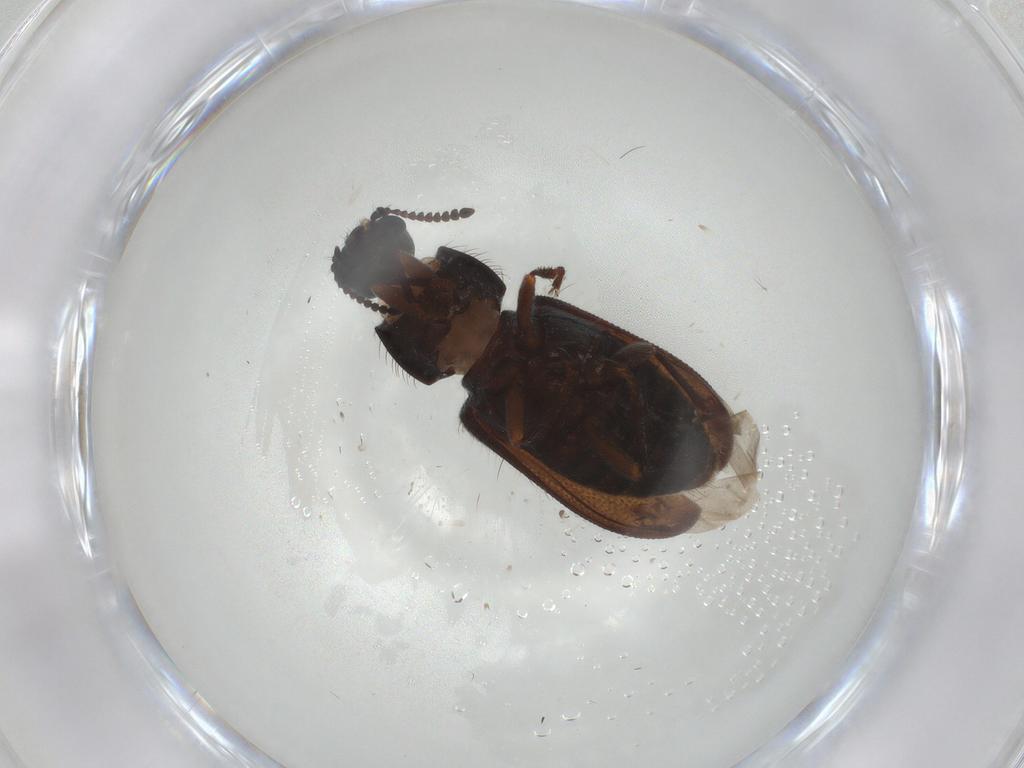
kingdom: Animalia
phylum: Arthropoda
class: Insecta
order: Coleoptera
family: Melyridae
